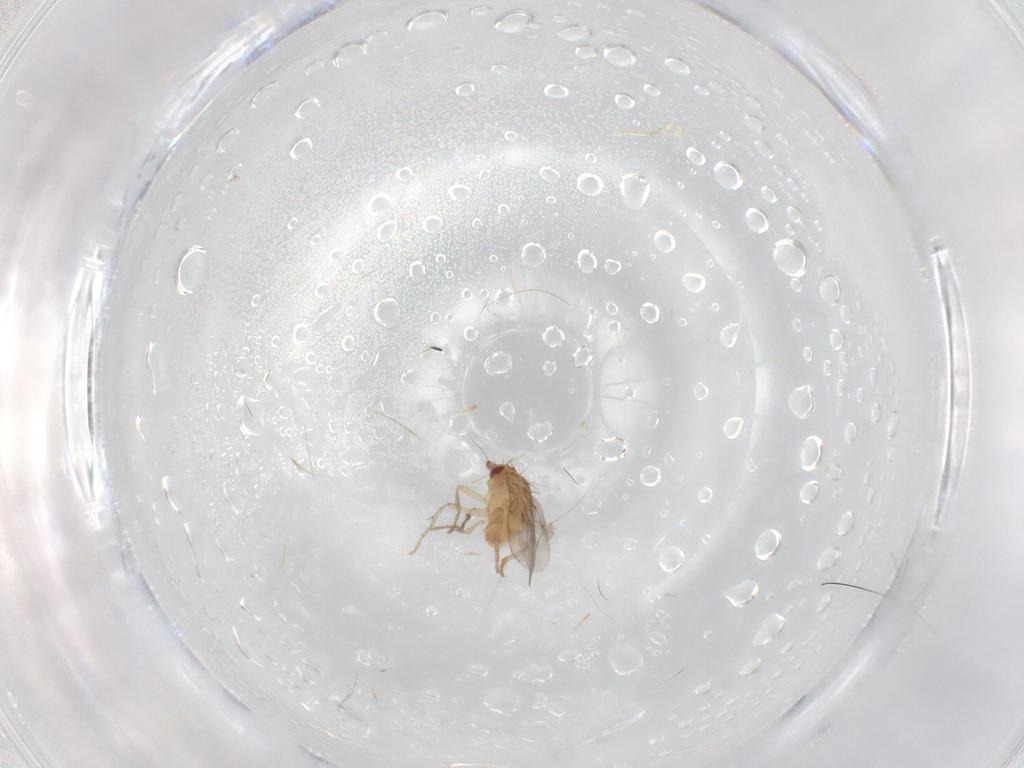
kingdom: Animalia
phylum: Arthropoda
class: Insecta
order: Diptera
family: Sphaeroceridae
